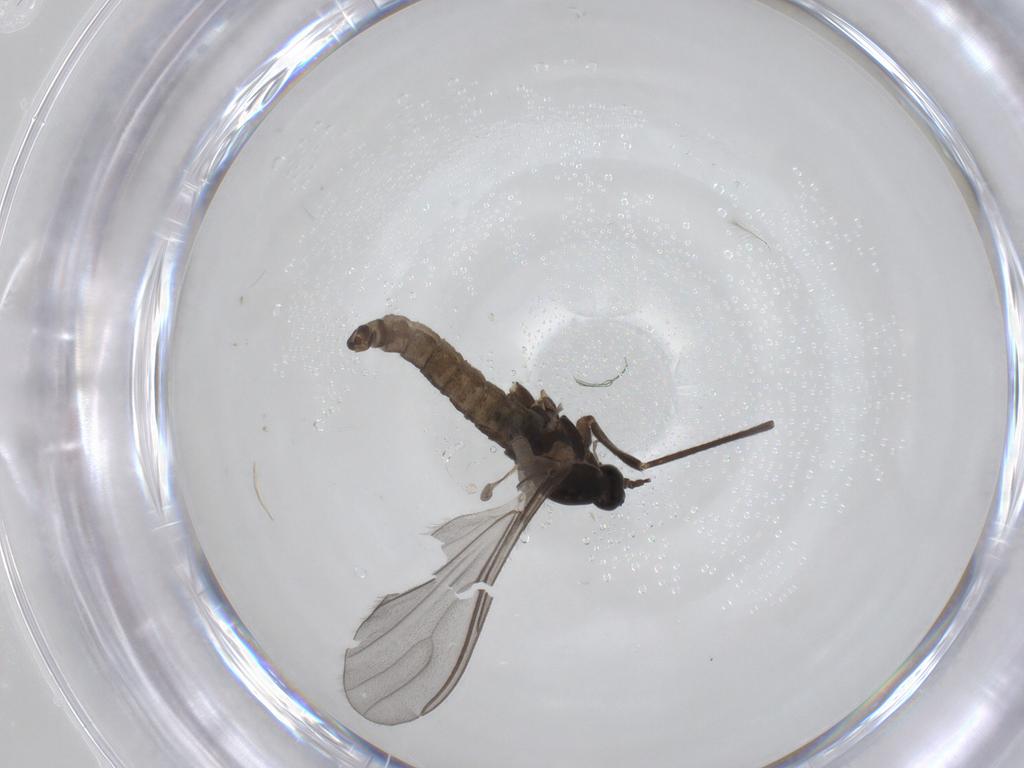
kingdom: Animalia
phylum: Arthropoda
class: Insecta
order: Diptera
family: Cecidomyiidae
